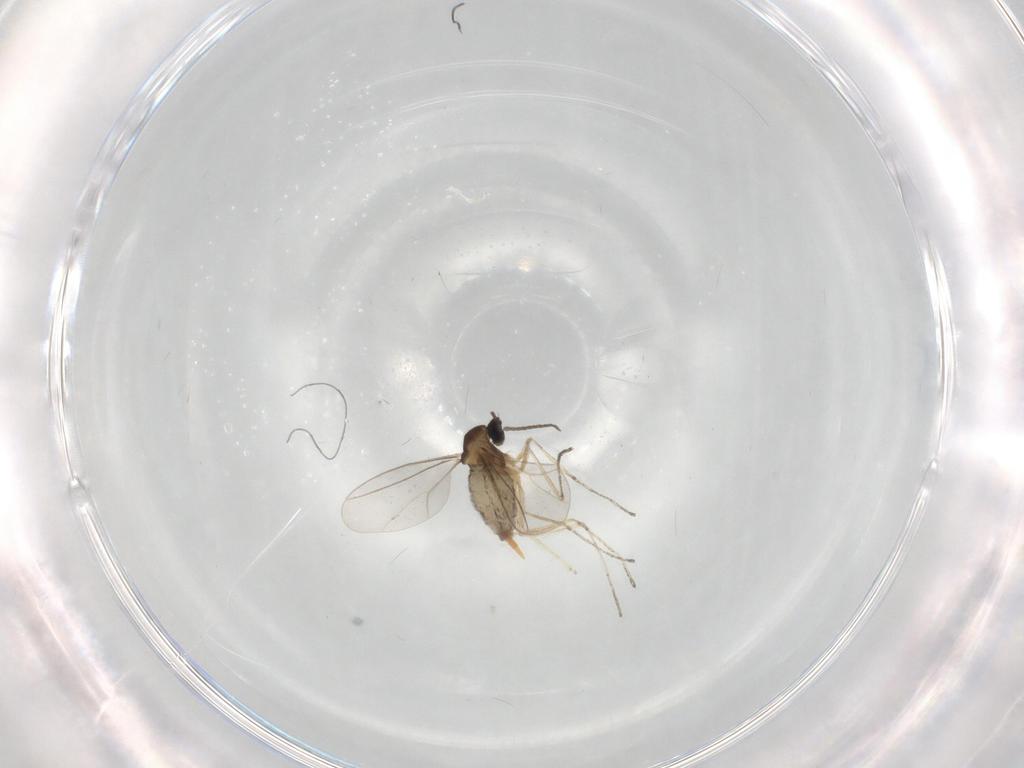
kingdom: Animalia
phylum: Arthropoda
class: Insecta
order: Diptera
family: Cecidomyiidae
